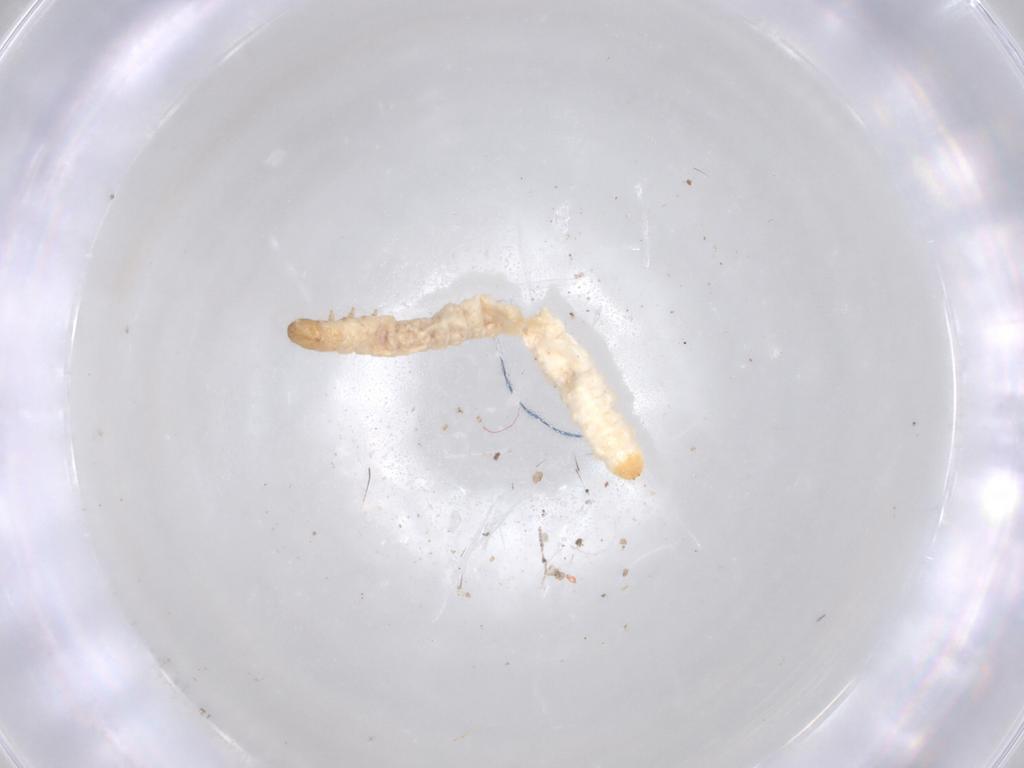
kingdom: Animalia
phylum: Arthropoda
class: Insecta
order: Coleoptera
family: Chrysomelidae
